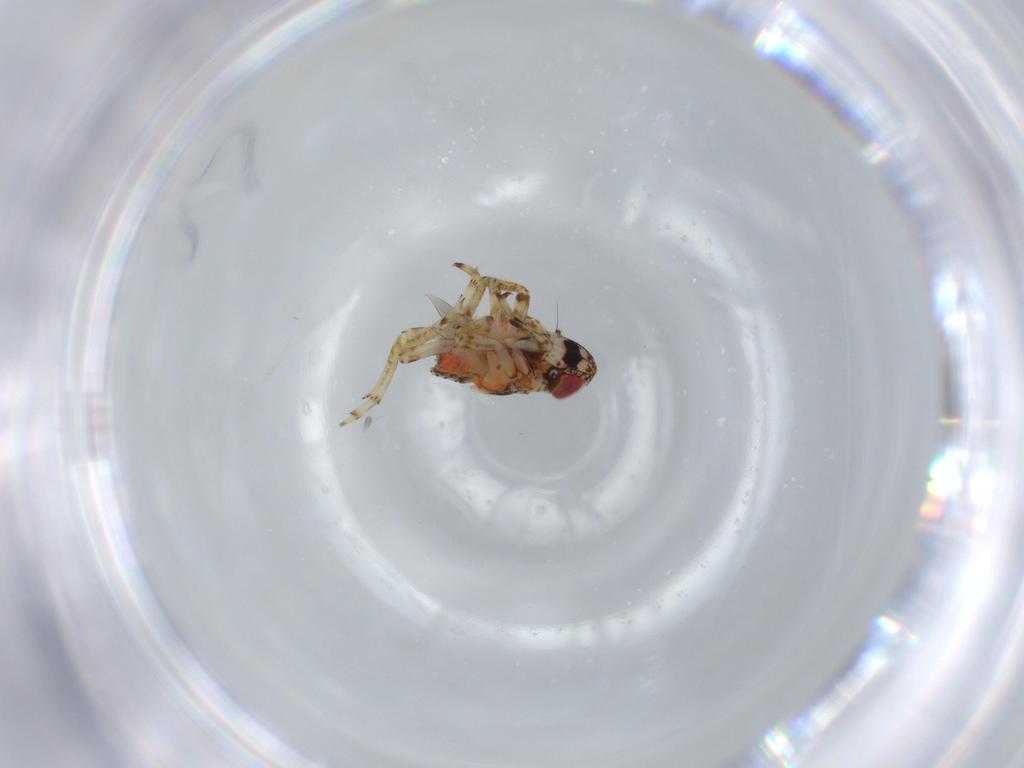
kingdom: Animalia
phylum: Arthropoda
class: Insecta
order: Hemiptera
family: Issidae
